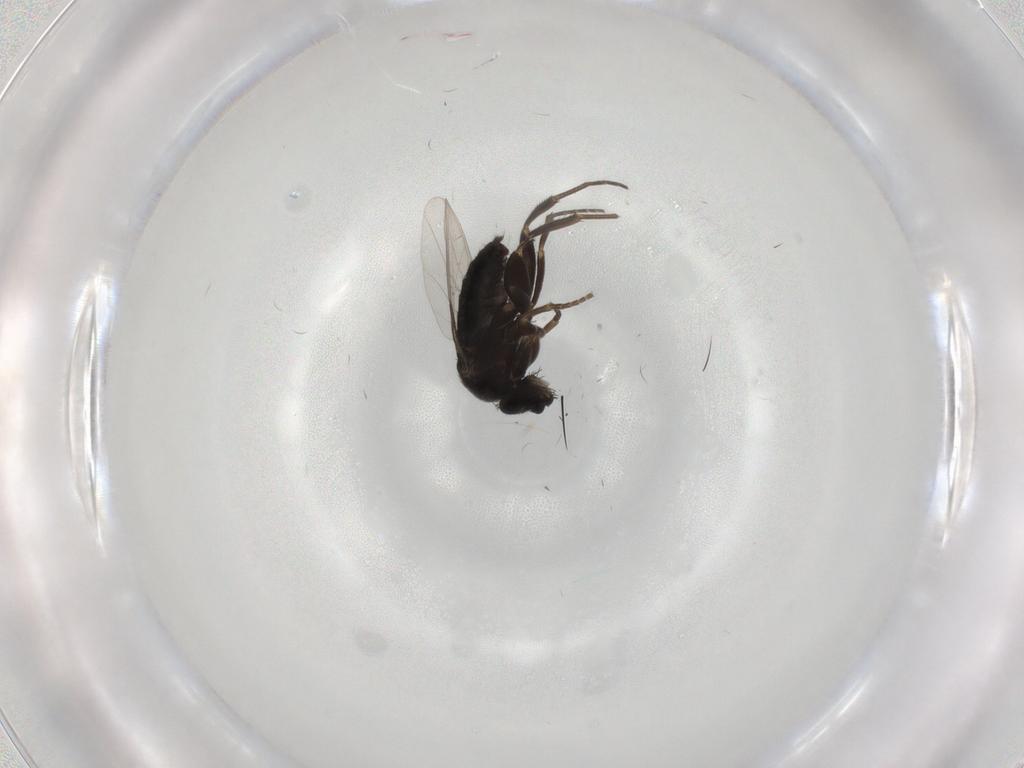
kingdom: Animalia
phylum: Arthropoda
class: Insecta
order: Diptera
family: Phoridae
